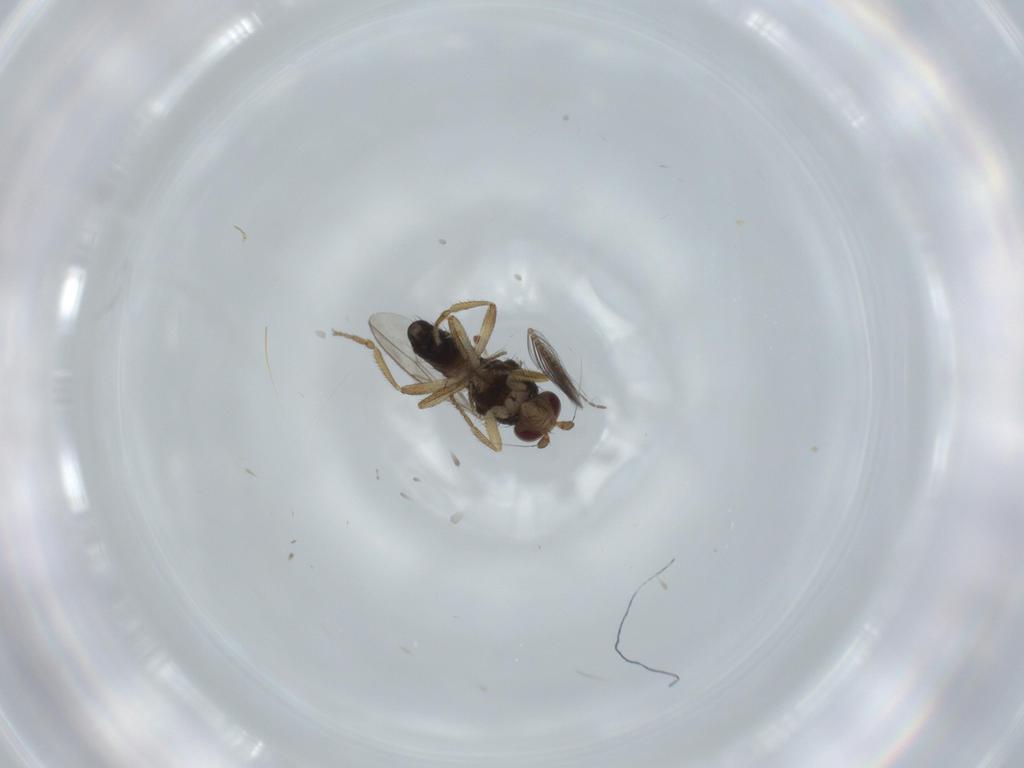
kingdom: Animalia
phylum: Arthropoda
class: Insecta
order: Diptera
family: Sphaeroceridae
